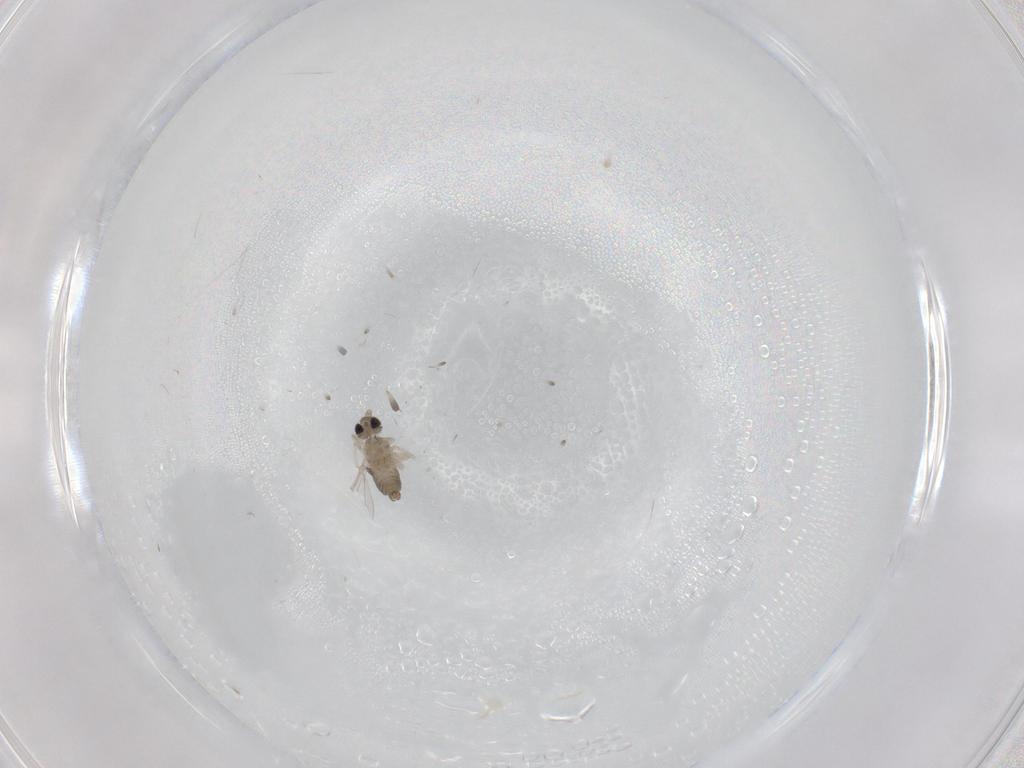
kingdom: Animalia
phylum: Arthropoda
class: Insecta
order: Diptera
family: Cecidomyiidae
